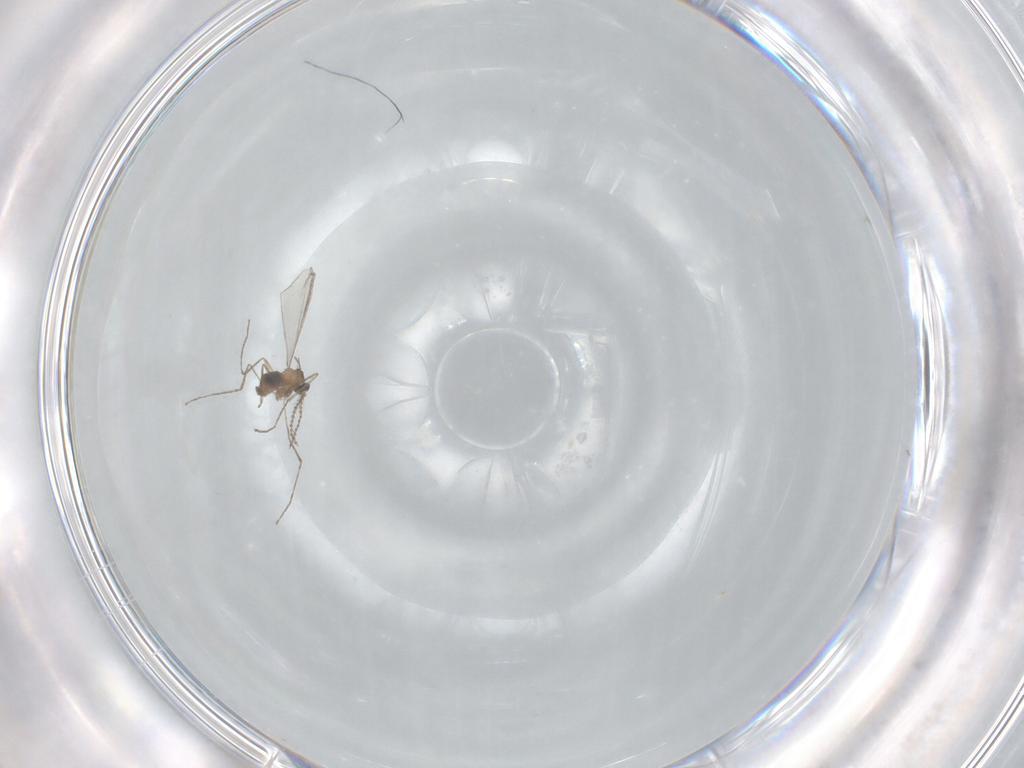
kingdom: Animalia
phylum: Arthropoda
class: Insecta
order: Diptera
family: Cecidomyiidae
